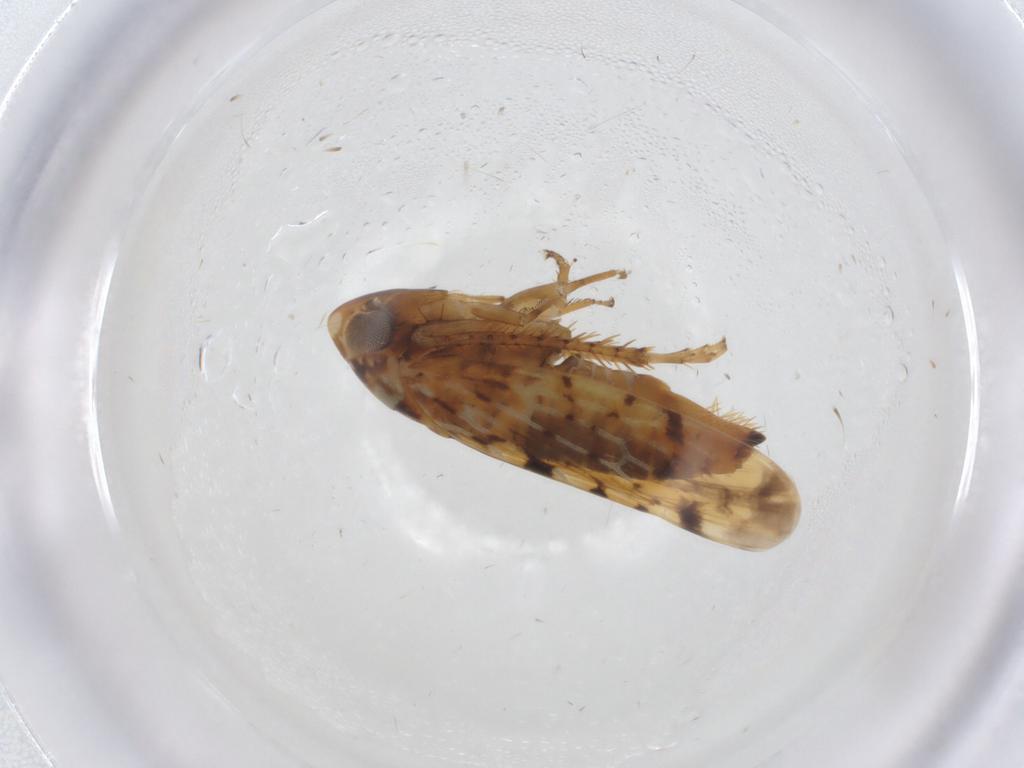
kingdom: Animalia
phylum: Arthropoda
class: Insecta
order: Hemiptera
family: Cicadellidae
